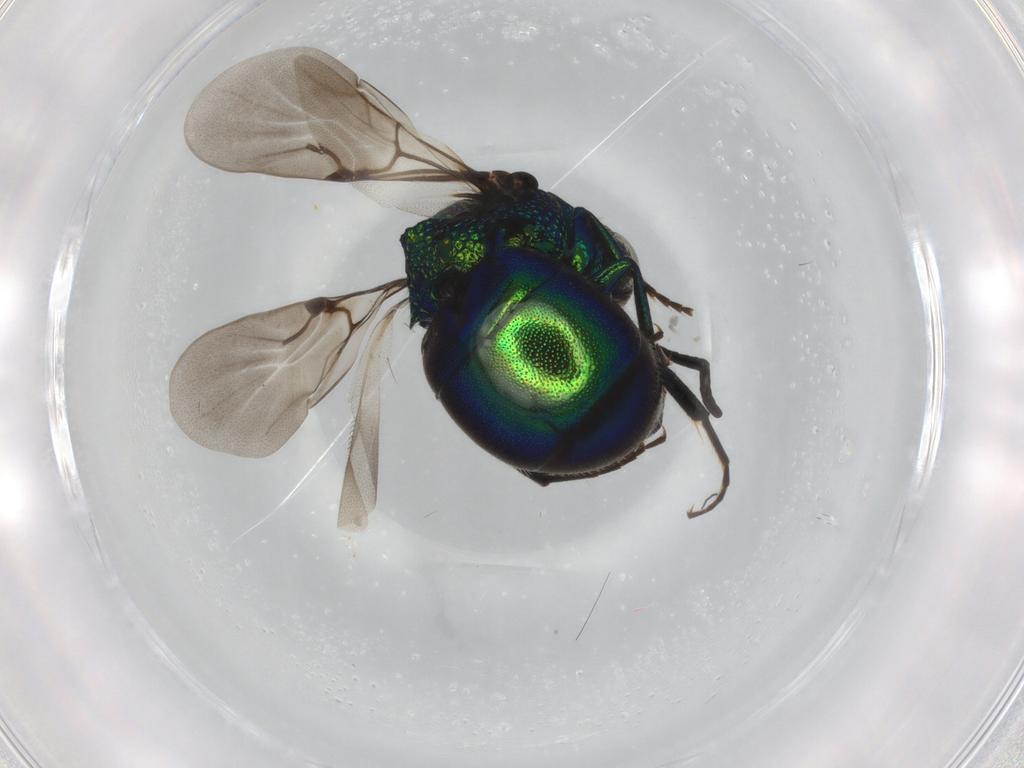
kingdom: Animalia
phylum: Arthropoda
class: Insecta
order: Hymenoptera
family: Chrysididae
